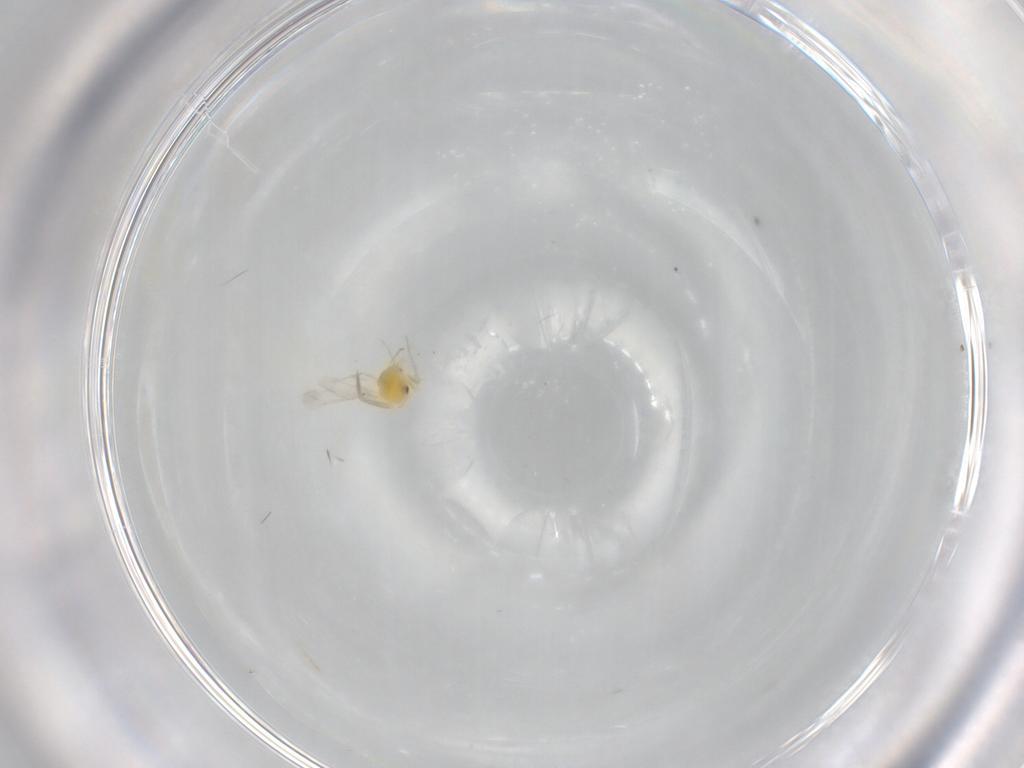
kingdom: Animalia
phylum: Arthropoda
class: Insecta
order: Hemiptera
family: Aleyrodidae
